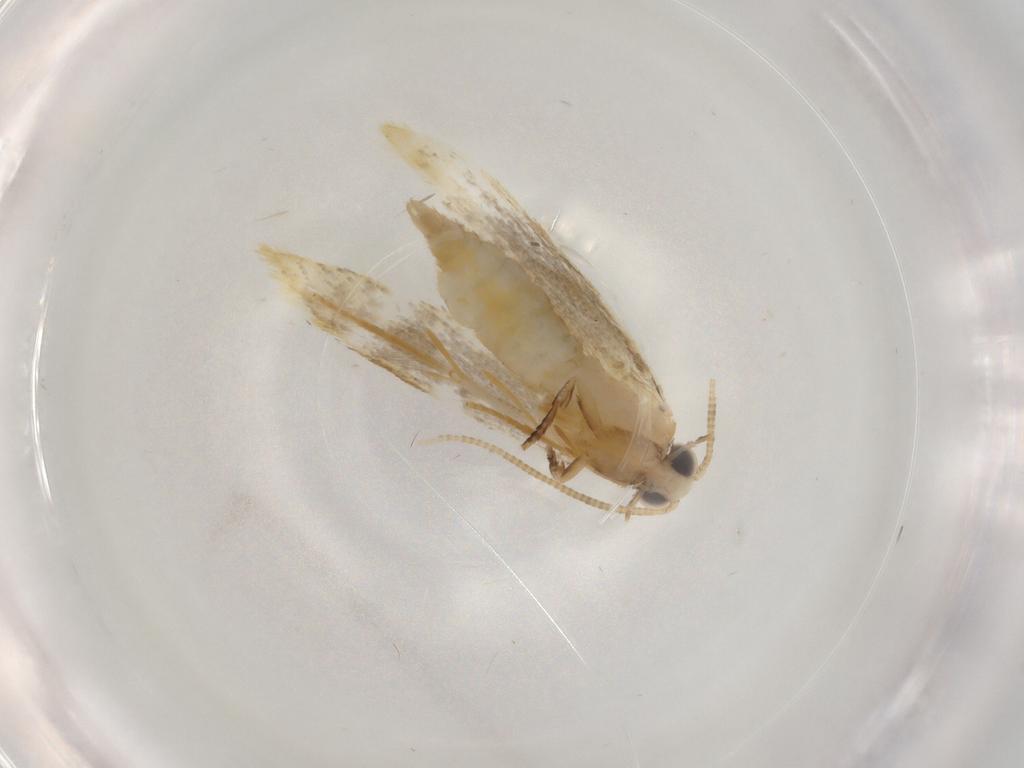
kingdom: Animalia
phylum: Arthropoda
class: Insecta
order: Lepidoptera
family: Tineidae
